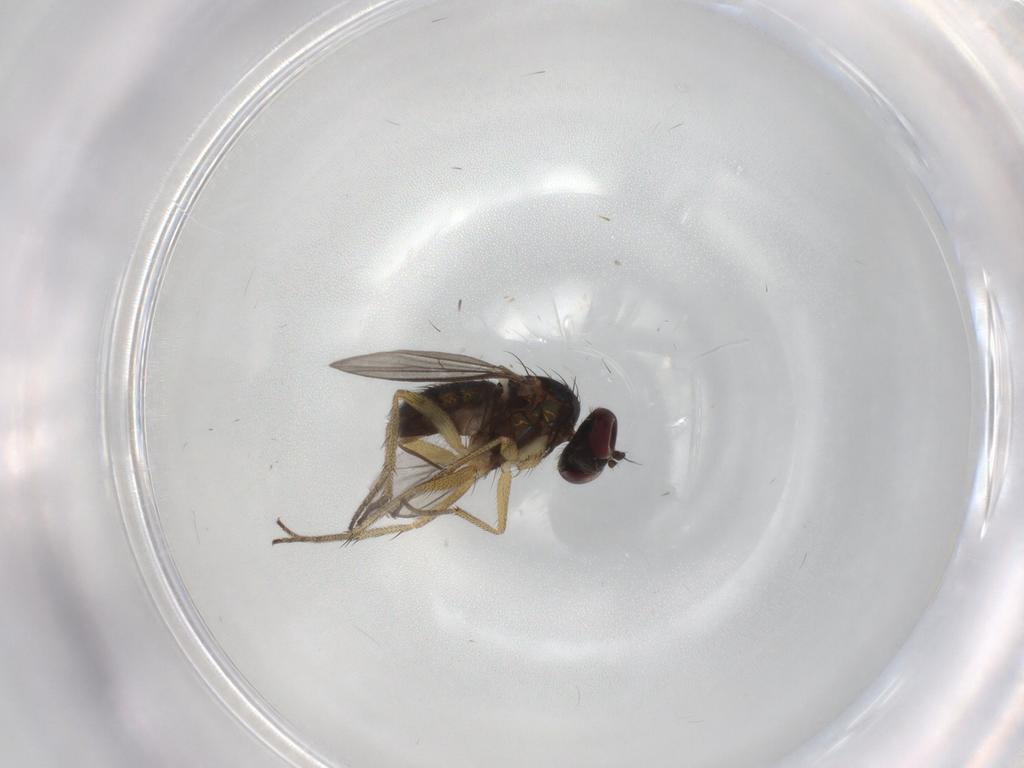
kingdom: Animalia
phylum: Arthropoda
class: Insecta
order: Diptera
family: Dolichopodidae
